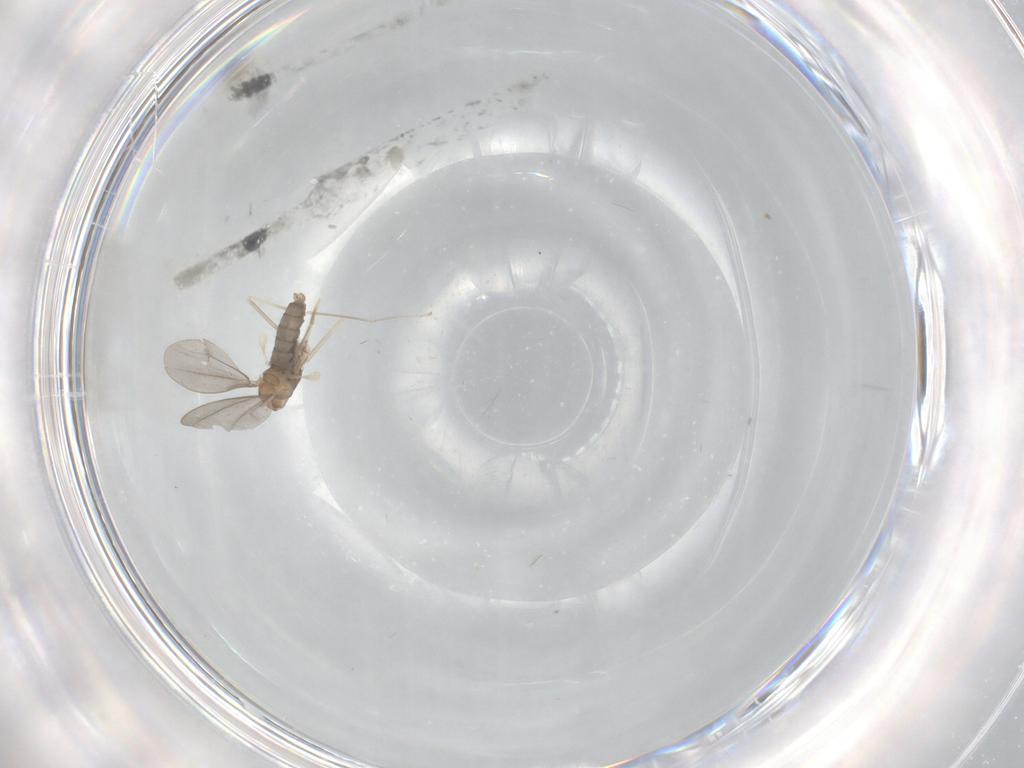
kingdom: Animalia
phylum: Arthropoda
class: Insecta
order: Diptera
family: Cecidomyiidae
